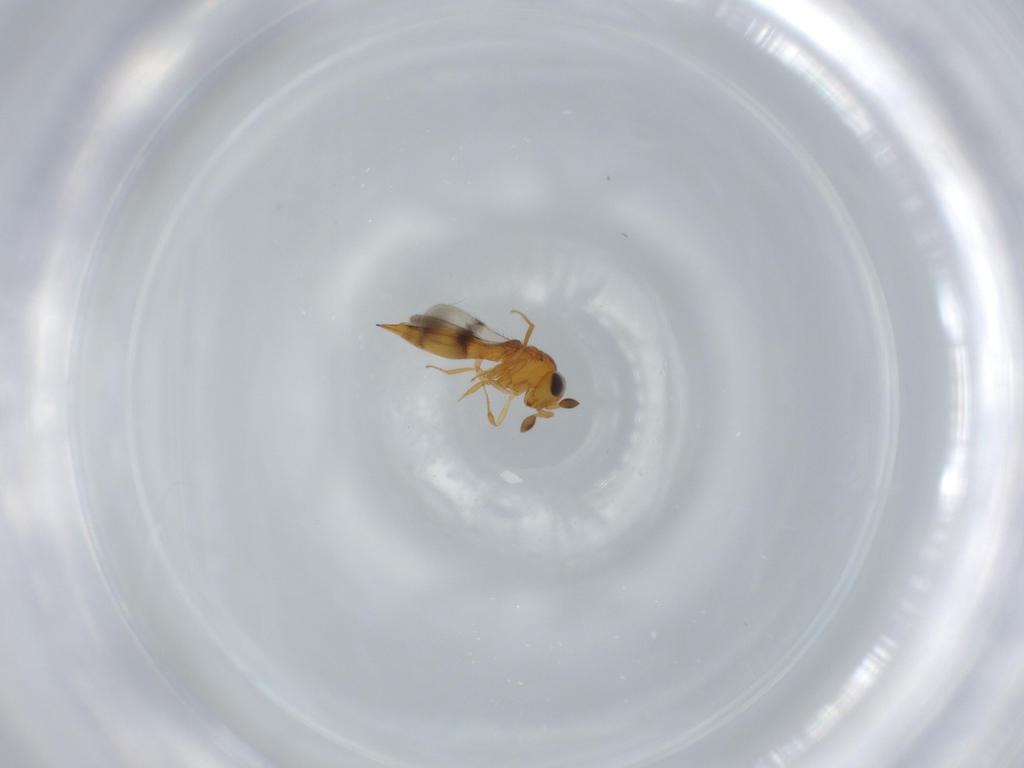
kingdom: Animalia
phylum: Arthropoda
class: Insecta
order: Hymenoptera
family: Scelionidae
